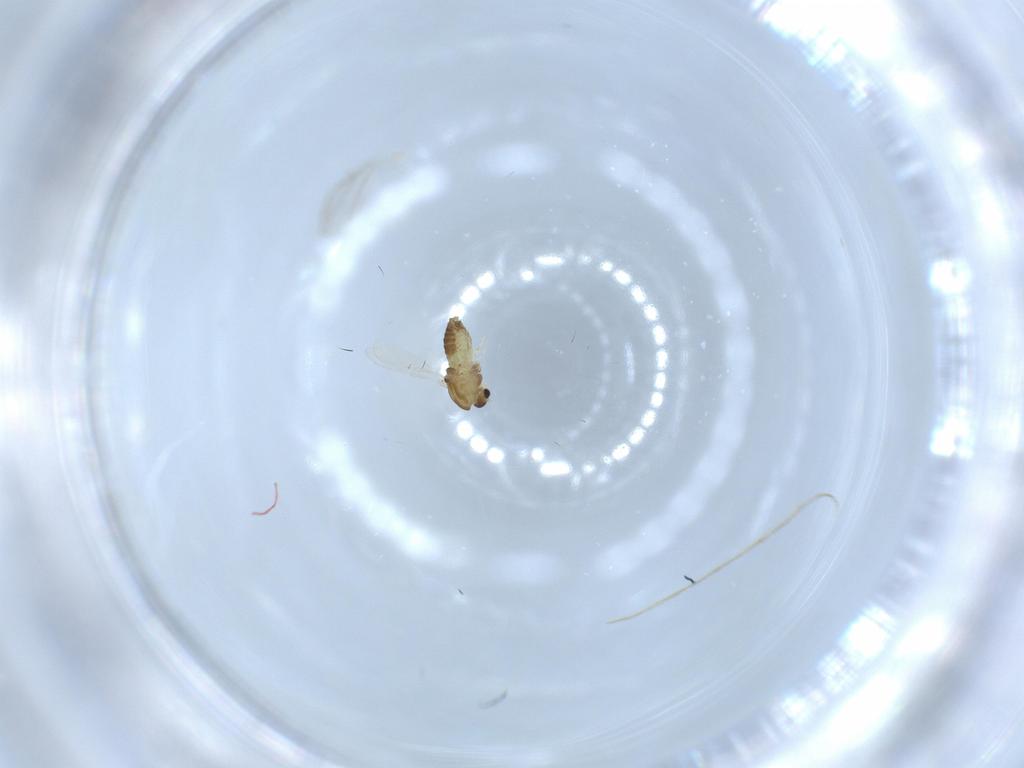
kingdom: Animalia
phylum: Arthropoda
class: Insecta
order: Diptera
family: Chironomidae
